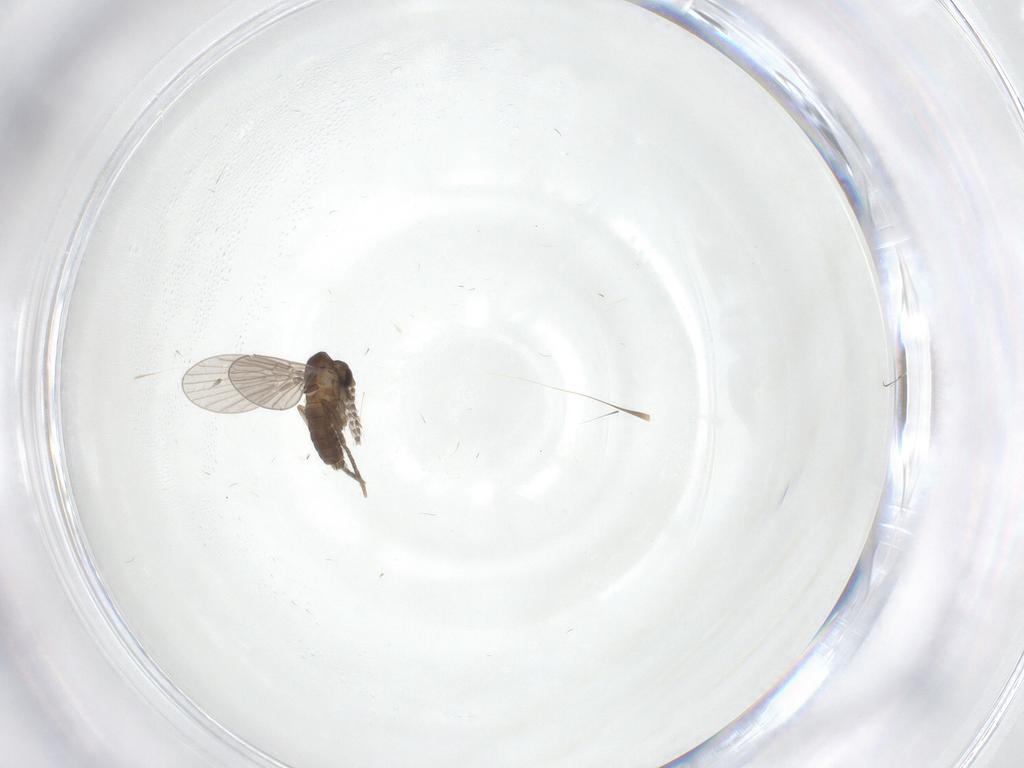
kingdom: Animalia
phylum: Arthropoda
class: Insecta
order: Diptera
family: Psychodidae
